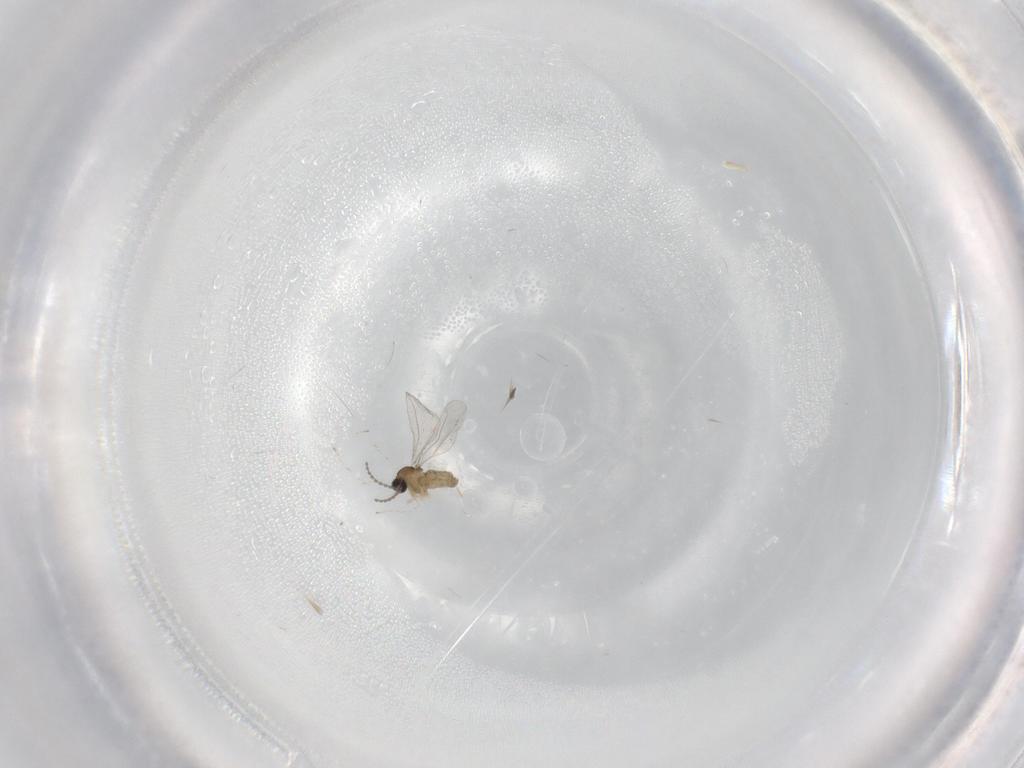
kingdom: Animalia
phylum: Arthropoda
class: Insecta
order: Diptera
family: Cecidomyiidae
